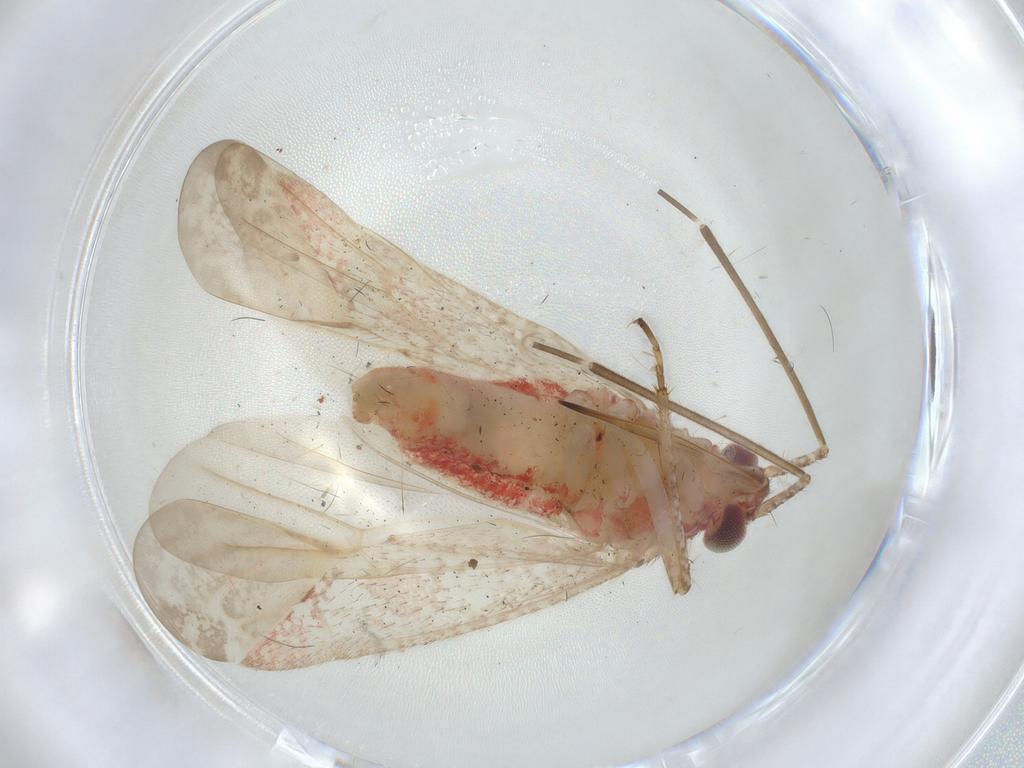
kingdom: Animalia
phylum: Arthropoda
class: Insecta
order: Hemiptera
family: Miridae
